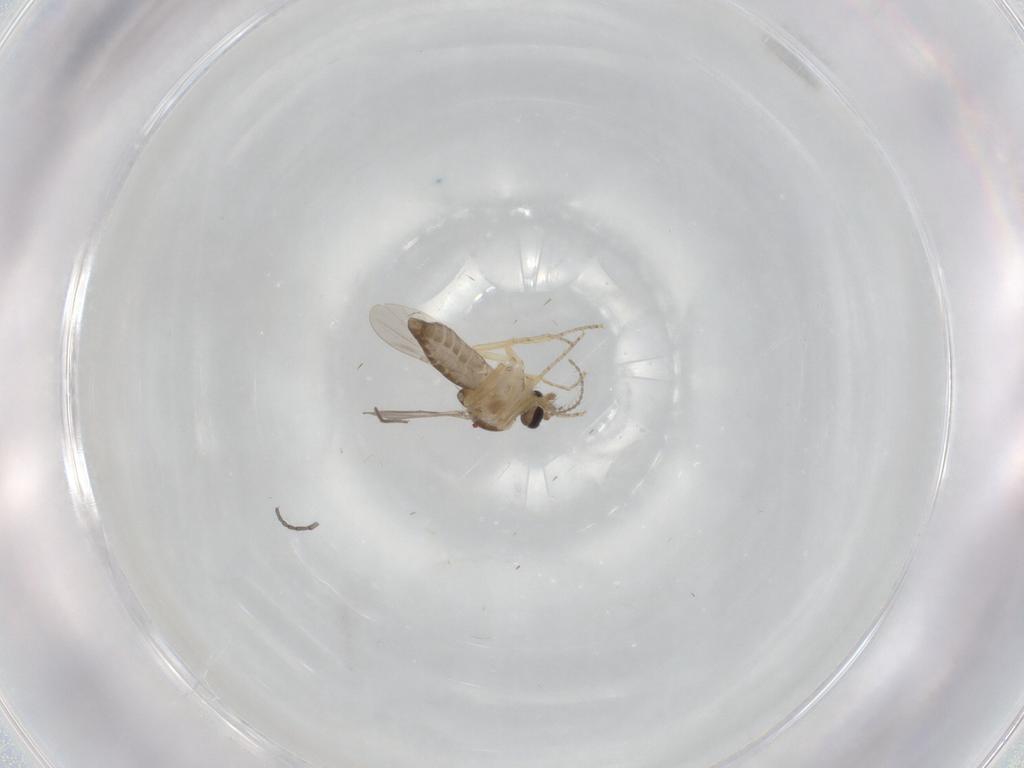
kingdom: Animalia
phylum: Arthropoda
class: Insecta
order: Diptera
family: Ceratopogonidae
